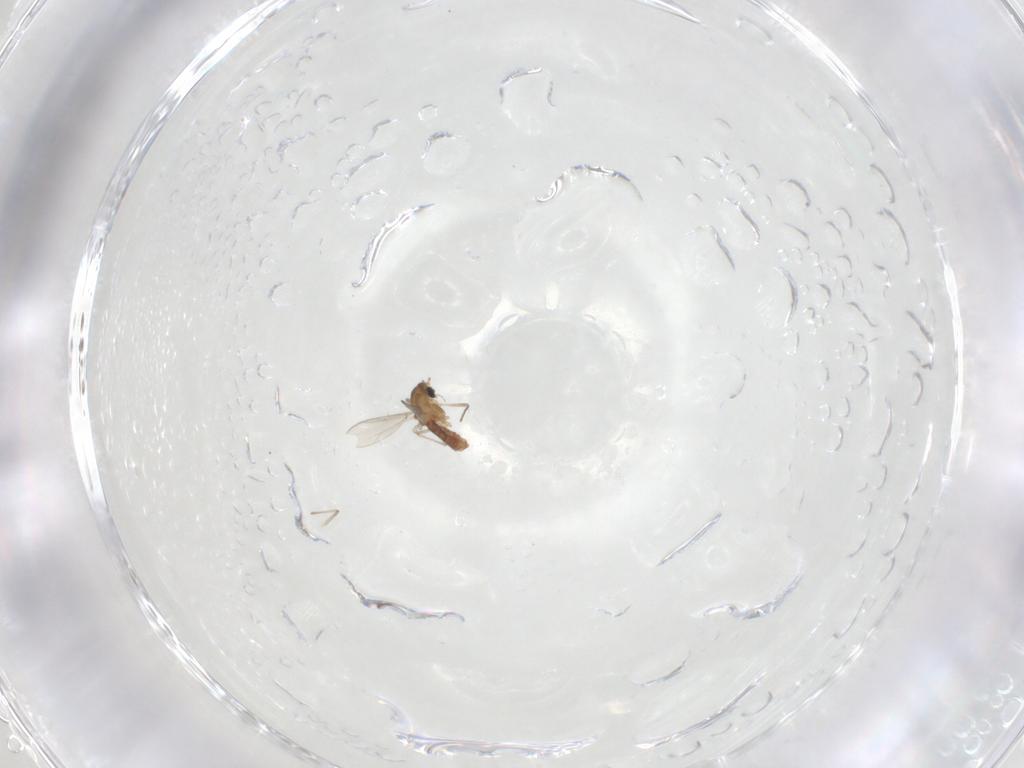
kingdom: Animalia
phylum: Arthropoda
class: Insecta
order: Diptera
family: Chironomidae
